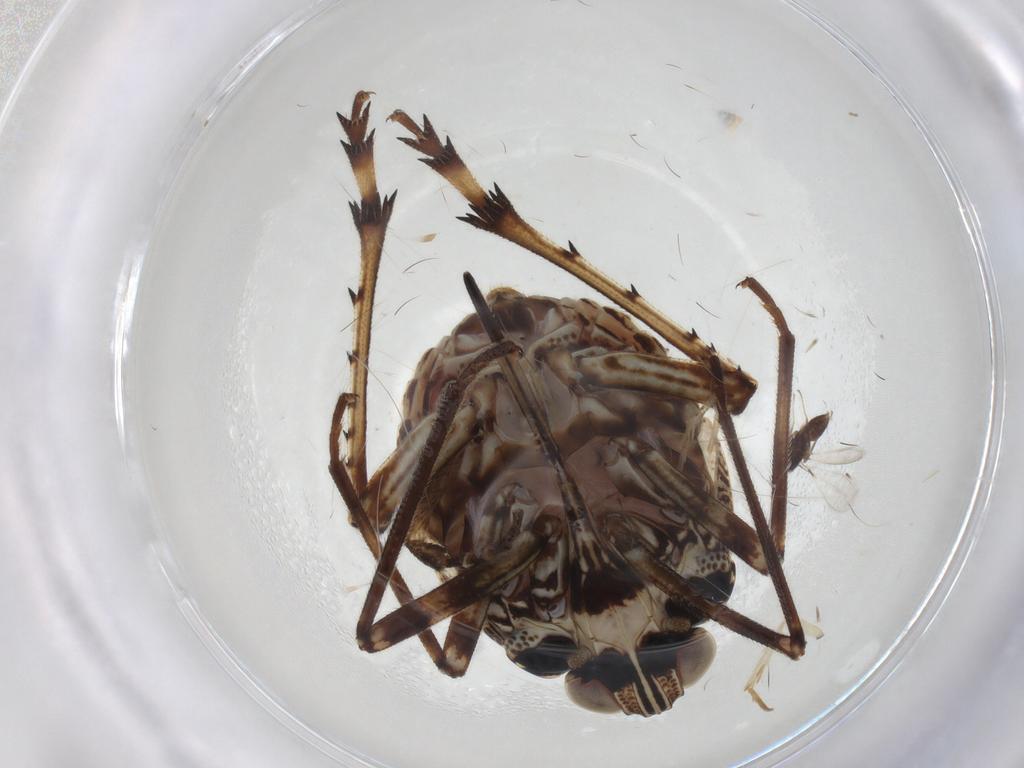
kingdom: Animalia
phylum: Arthropoda
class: Insecta
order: Hemiptera
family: Dictyopharidae
